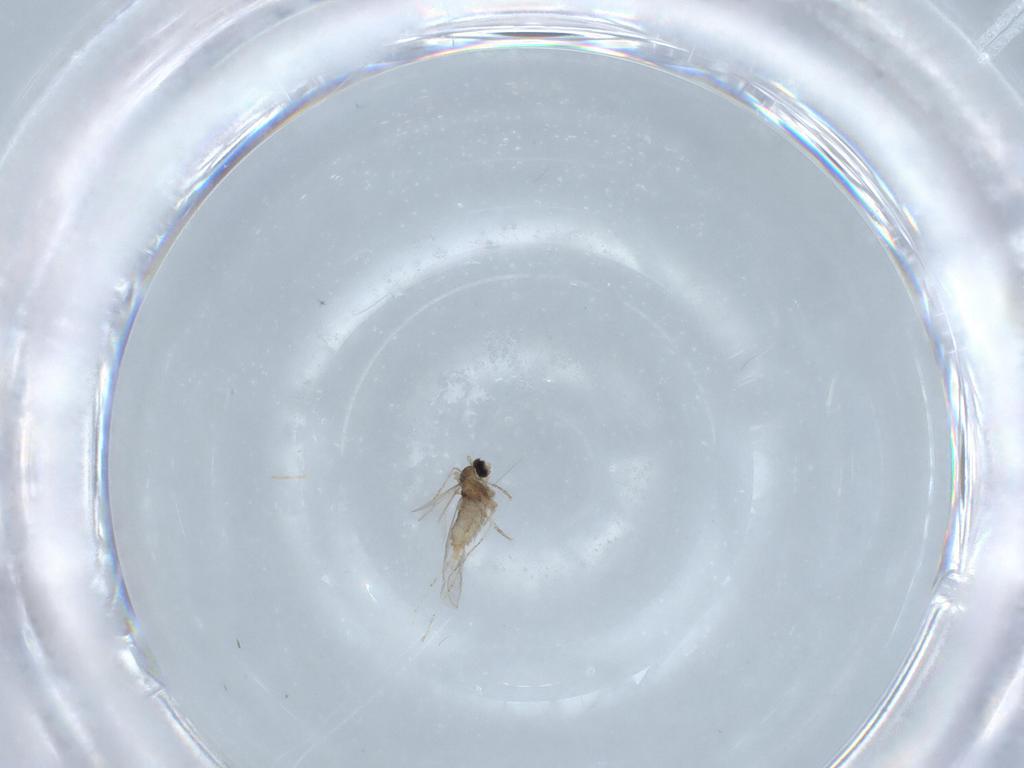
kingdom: Animalia
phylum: Arthropoda
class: Insecta
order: Diptera
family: Cecidomyiidae
